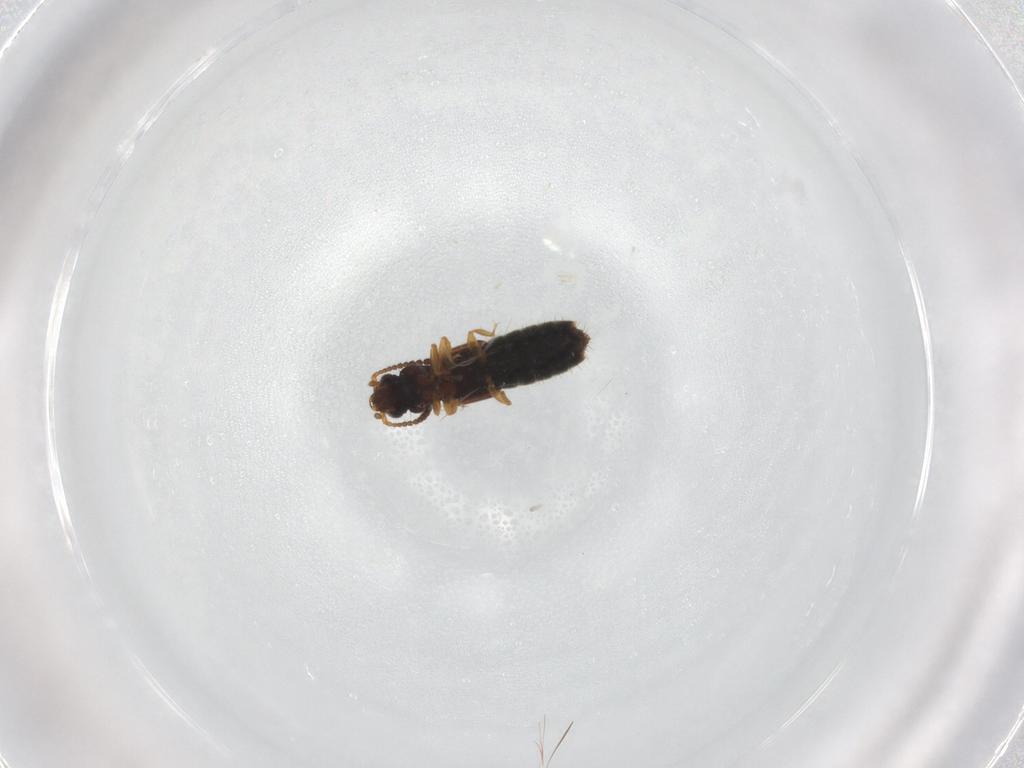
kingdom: Animalia
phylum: Arthropoda
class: Insecta
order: Coleoptera
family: Staphylinidae
